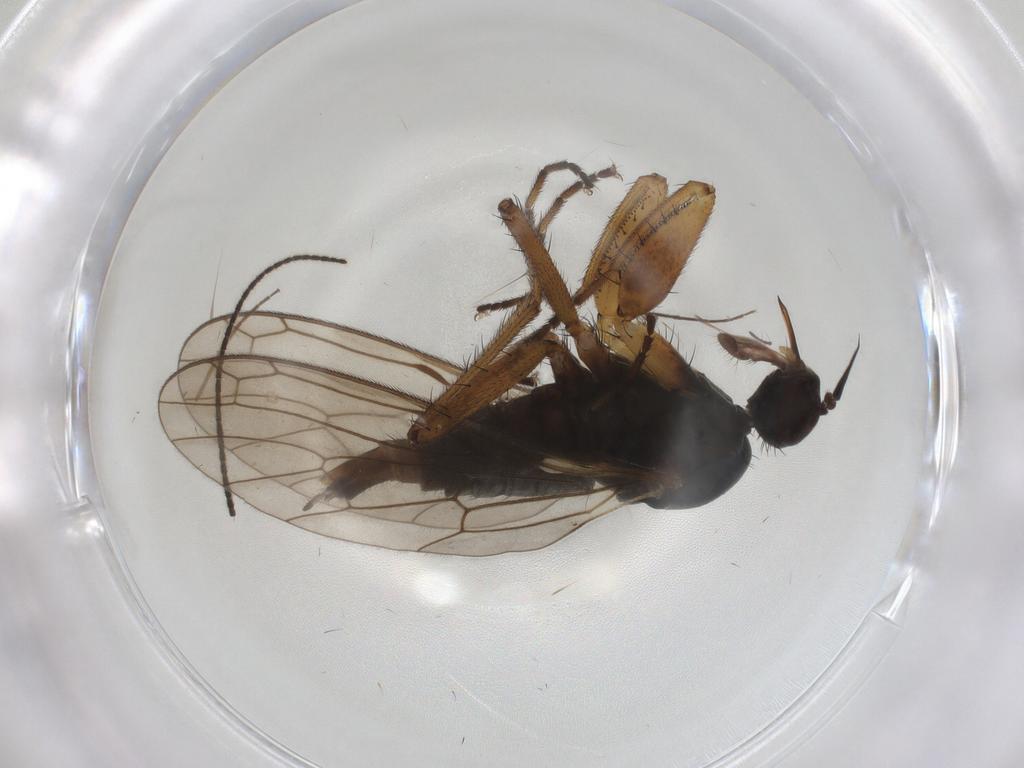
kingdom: Animalia
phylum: Arthropoda
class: Insecta
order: Diptera
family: Empididae
